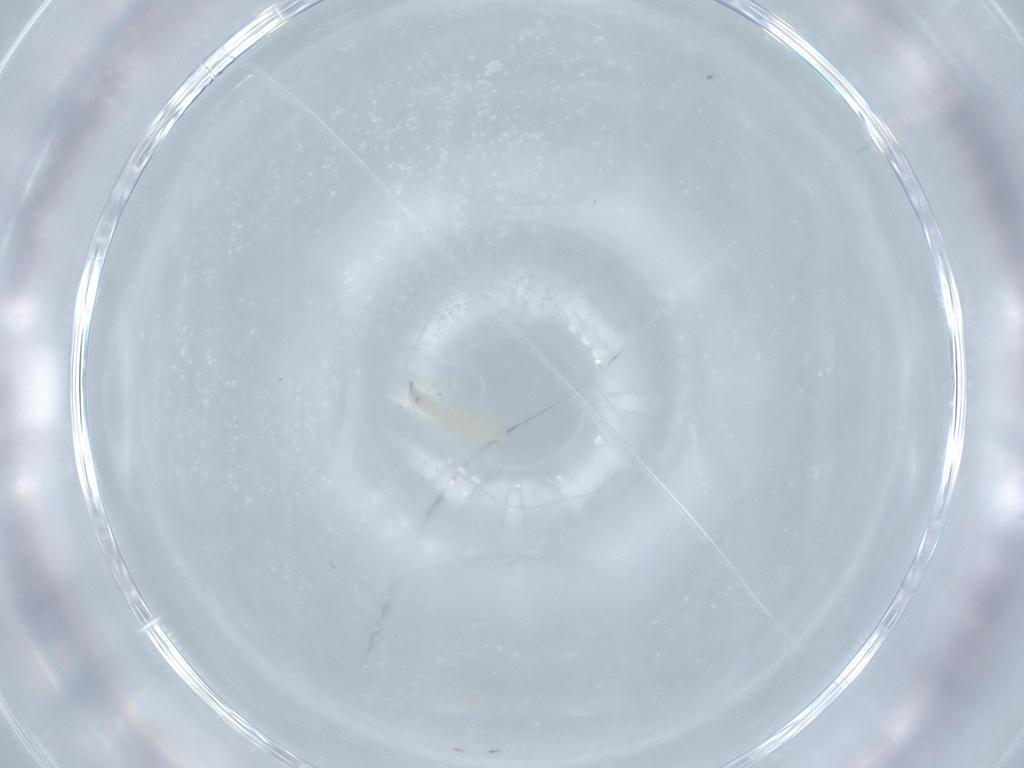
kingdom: Animalia
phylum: Arthropoda
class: Insecta
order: Diptera
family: Sarcophagidae
